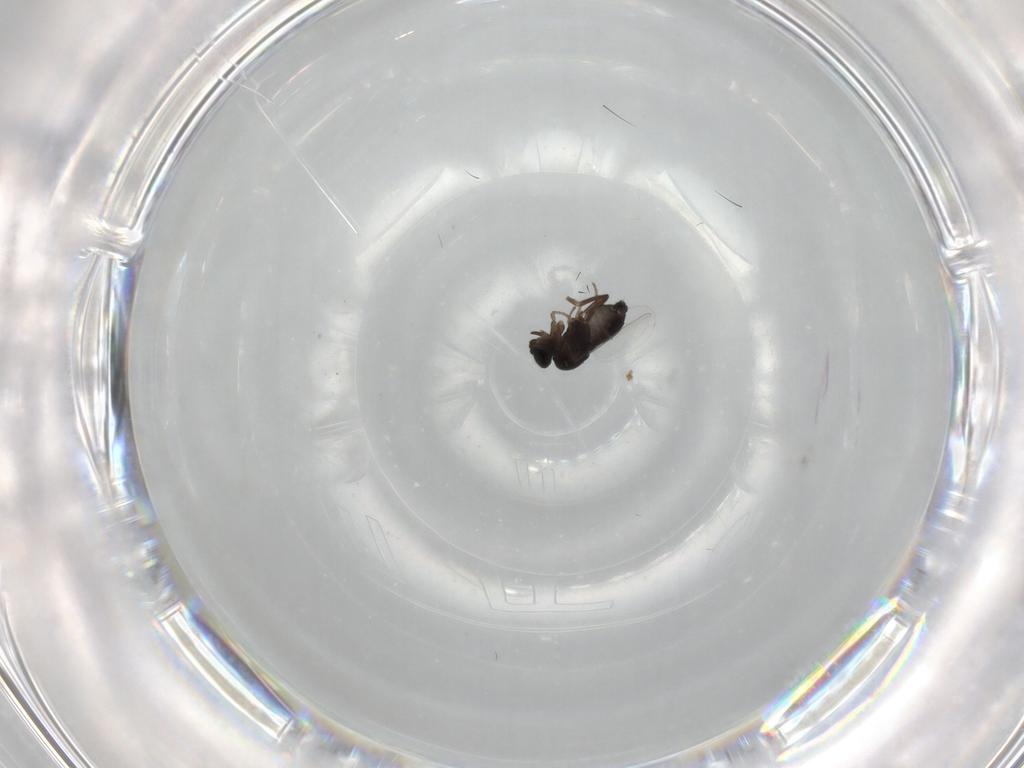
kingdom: Animalia
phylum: Arthropoda
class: Insecta
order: Diptera
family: Phoridae
